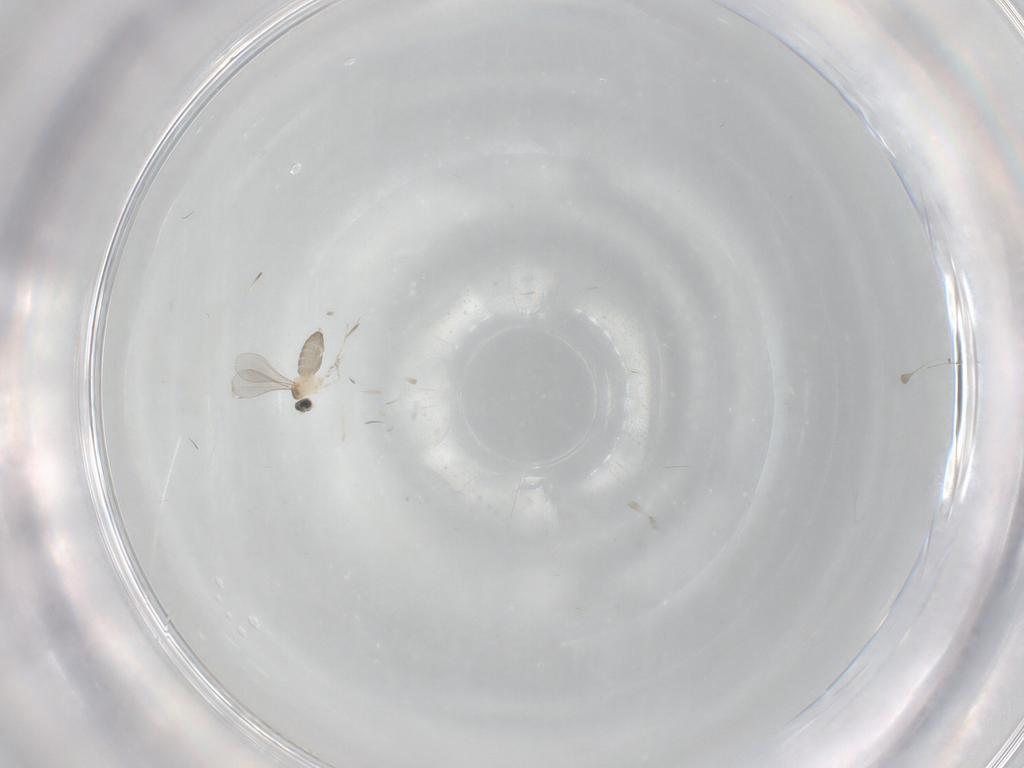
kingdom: Animalia
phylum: Arthropoda
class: Insecta
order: Diptera
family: Cecidomyiidae
